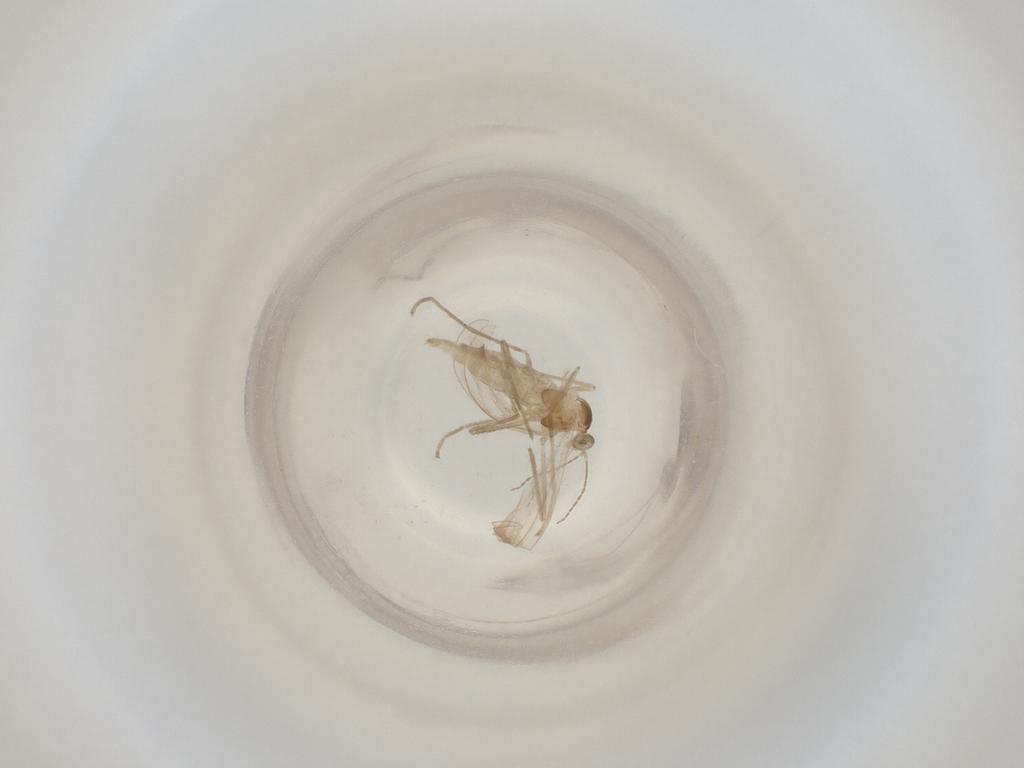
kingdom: Animalia
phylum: Arthropoda
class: Insecta
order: Diptera
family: Cecidomyiidae
